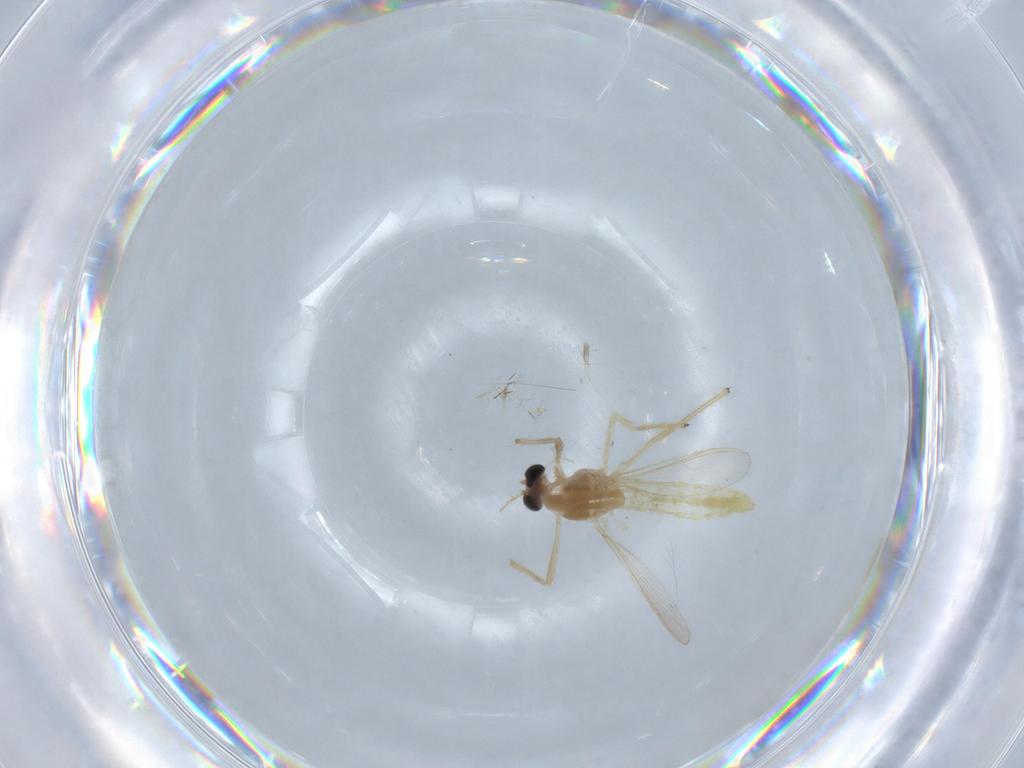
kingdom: Animalia
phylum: Arthropoda
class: Insecta
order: Diptera
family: Chironomidae
